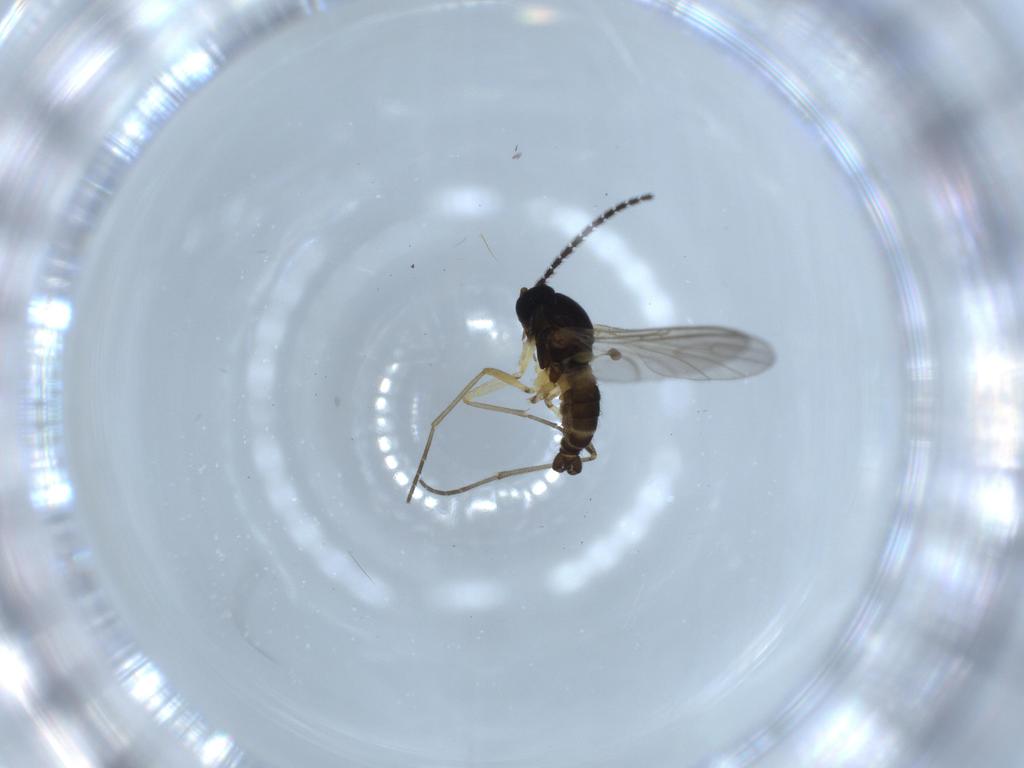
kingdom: Animalia
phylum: Arthropoda
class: Insecta
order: Diptera
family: Sciaridae
